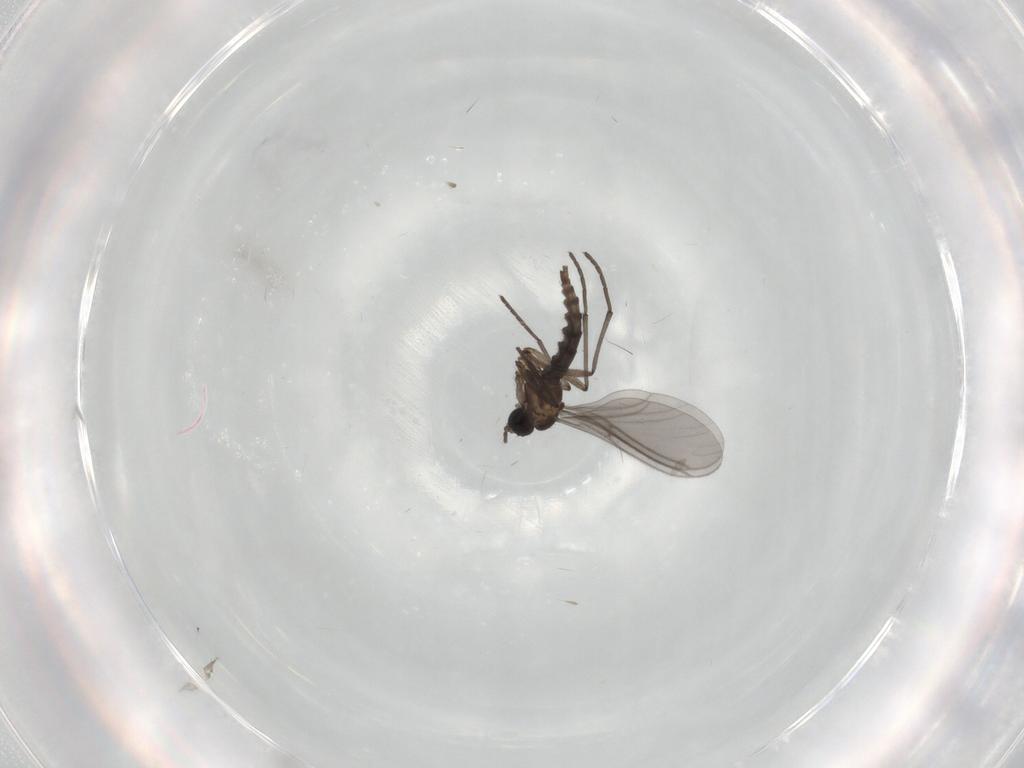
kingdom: Animalia
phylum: Arthropoda
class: Insecta
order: Diptera
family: Sciaridae
